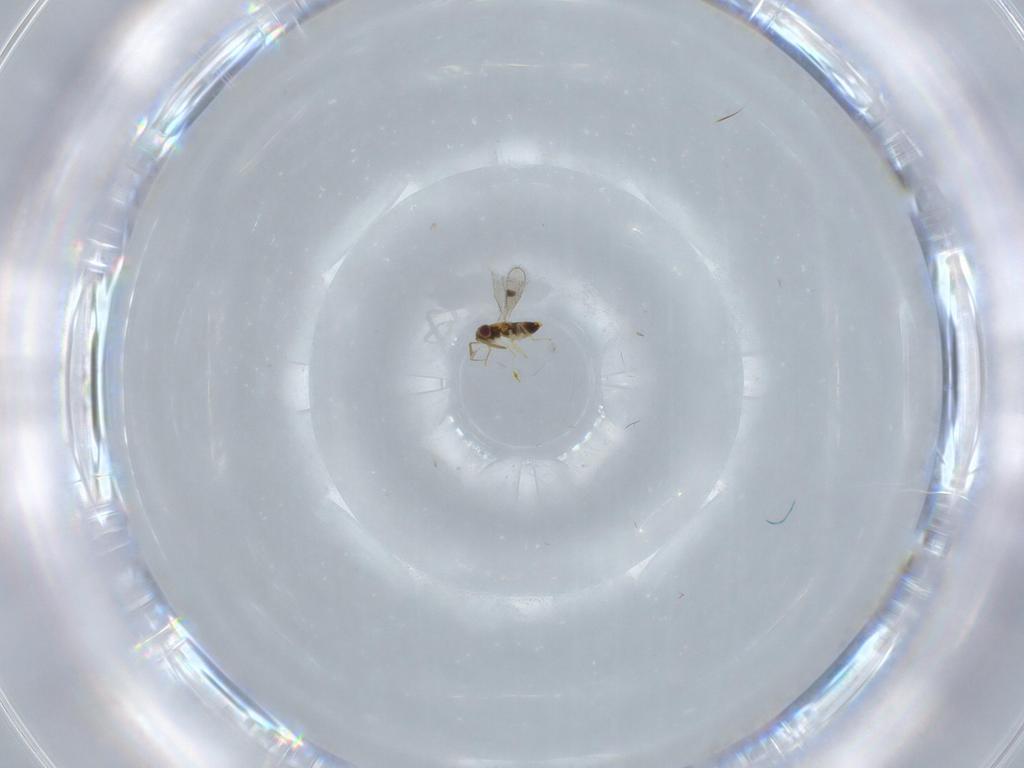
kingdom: Animalia
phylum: Arthropoda
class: Insecta
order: Hymenoptera
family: Aphelinidae
